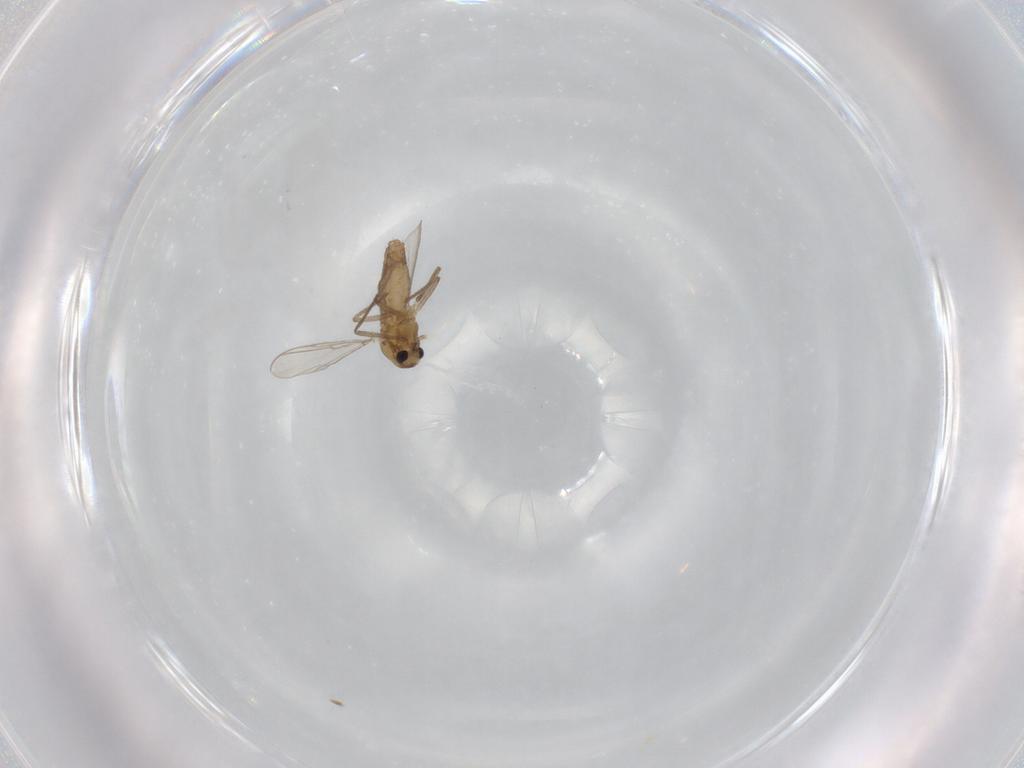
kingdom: Animalia
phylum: Arthropoda
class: Insecta
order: Diptera
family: Chironomidae
